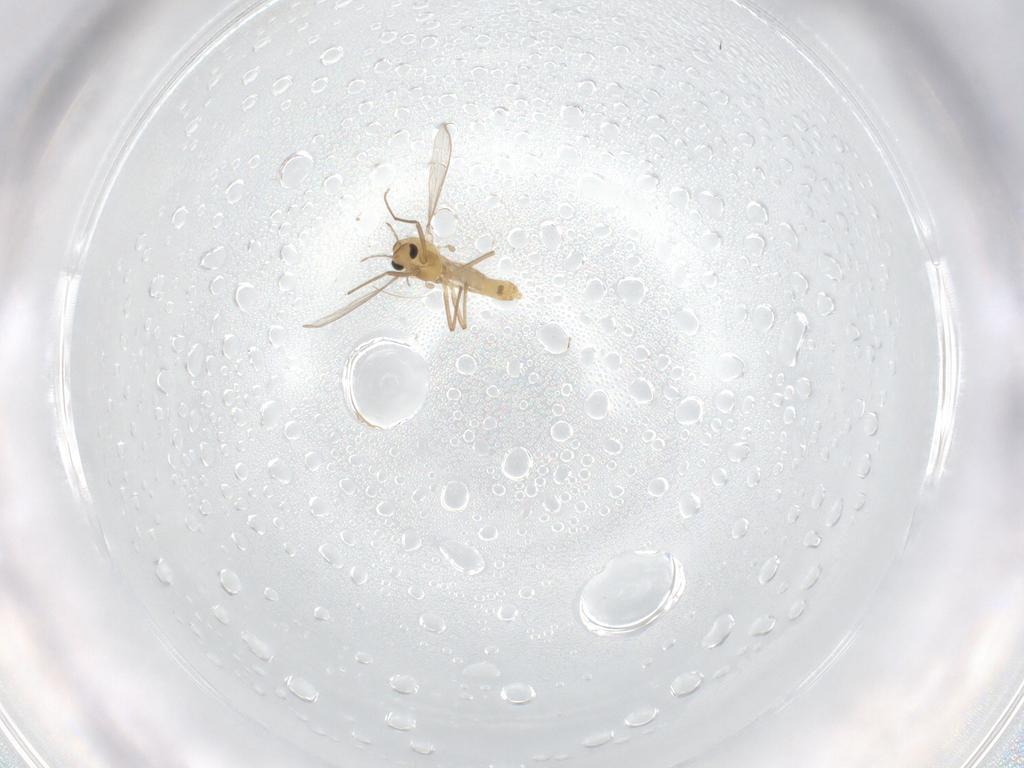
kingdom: Animalia
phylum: Arthropoda
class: Insecta
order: Diptera
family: Chironomidae
